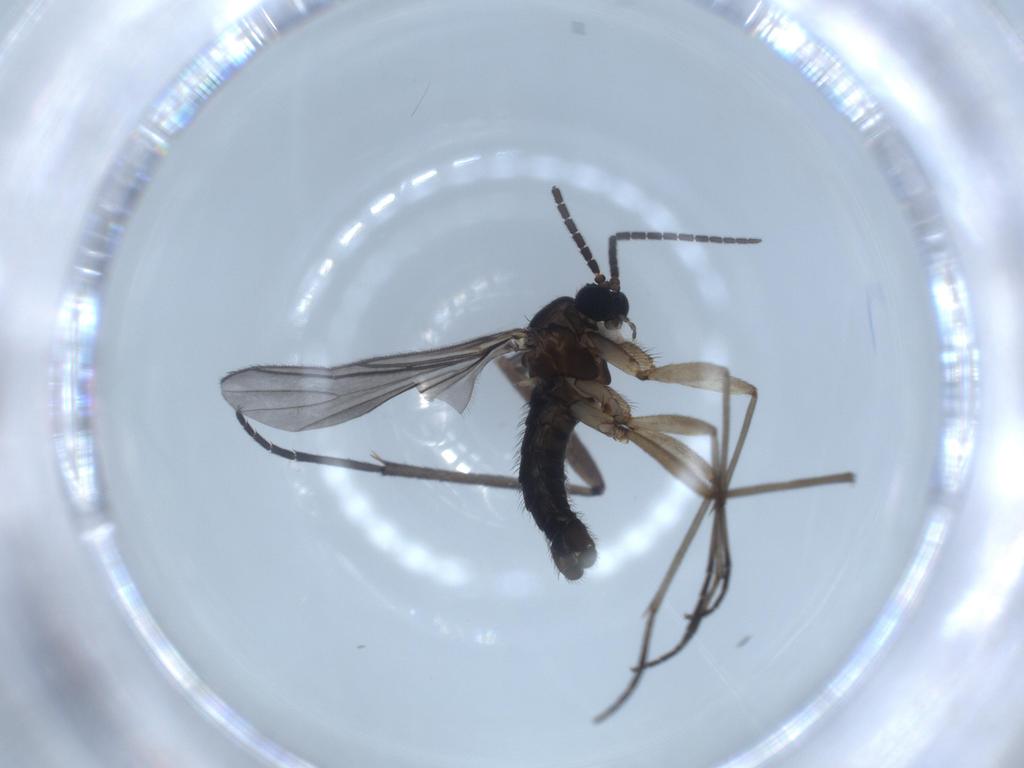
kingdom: Animalia
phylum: Arthropoda
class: Insecta
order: Diptera
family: Sciaridae
